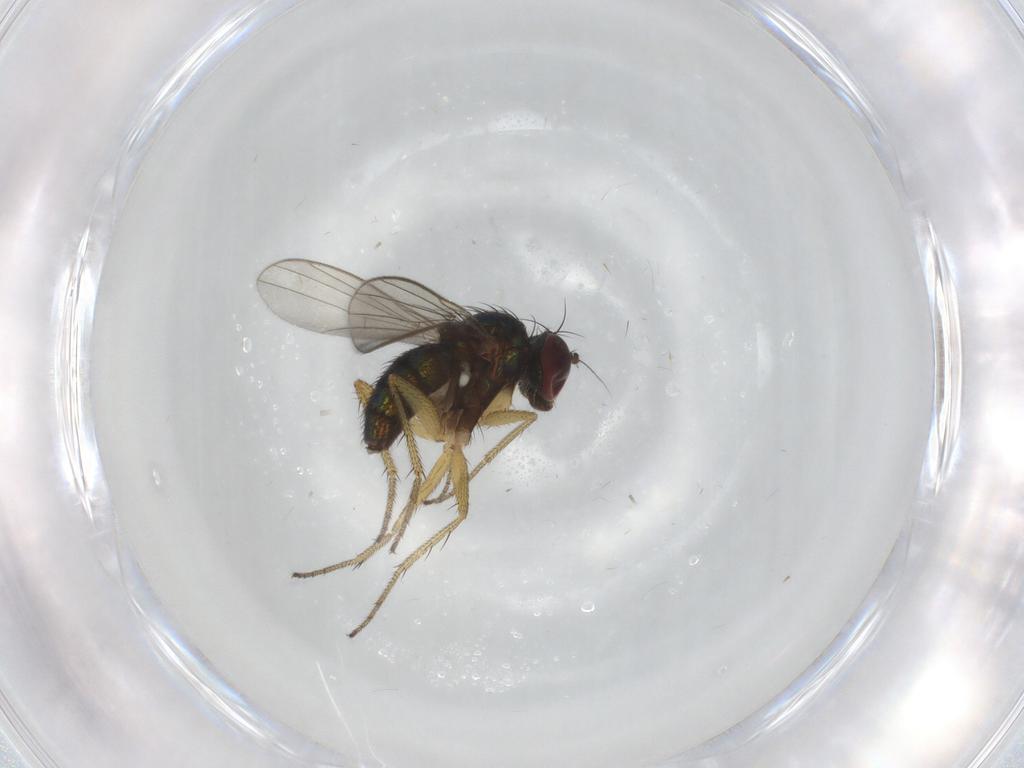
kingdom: Animalia
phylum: Arthropoda
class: Insecta
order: Diptera
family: Dolichopodidae
